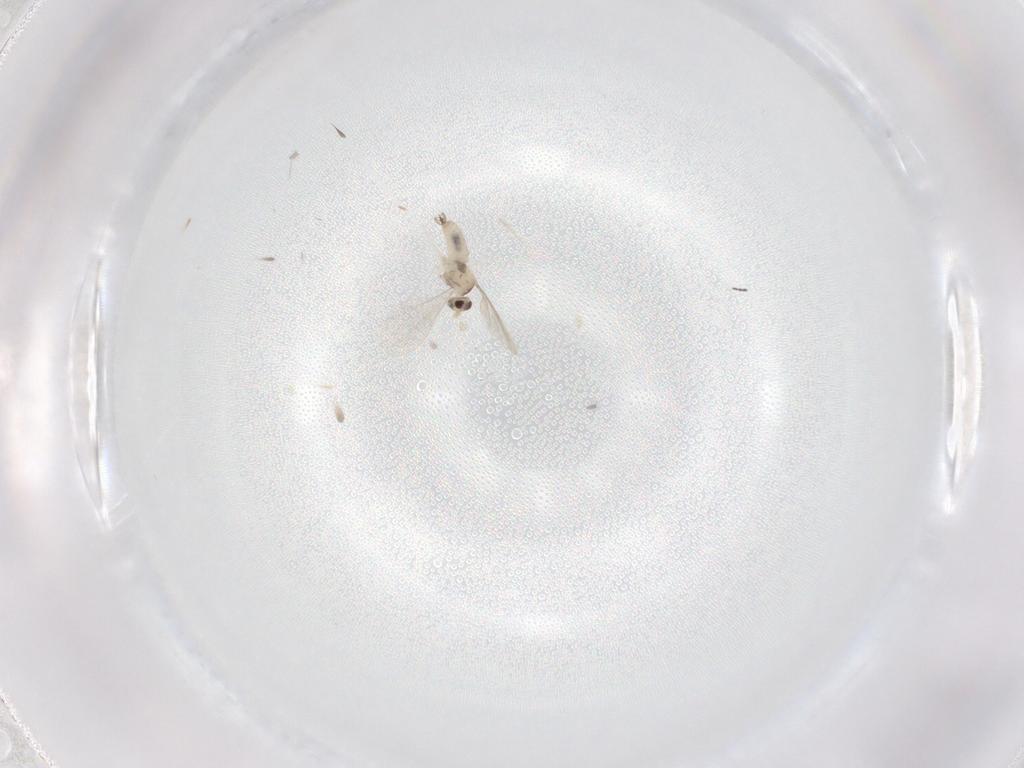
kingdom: Animalia
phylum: Arthropoda
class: Insecta
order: Diptera
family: Cecidomyiidae
